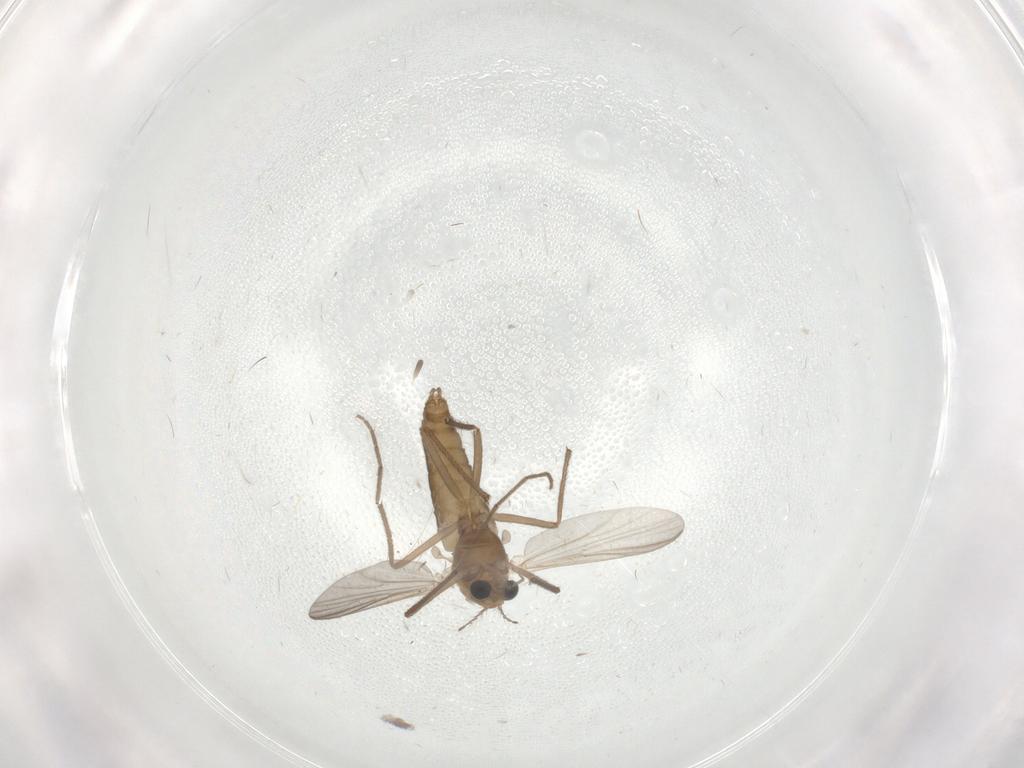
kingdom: Animalia
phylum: Arthropoda
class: Insecta
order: Diptera
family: Chironomidae
